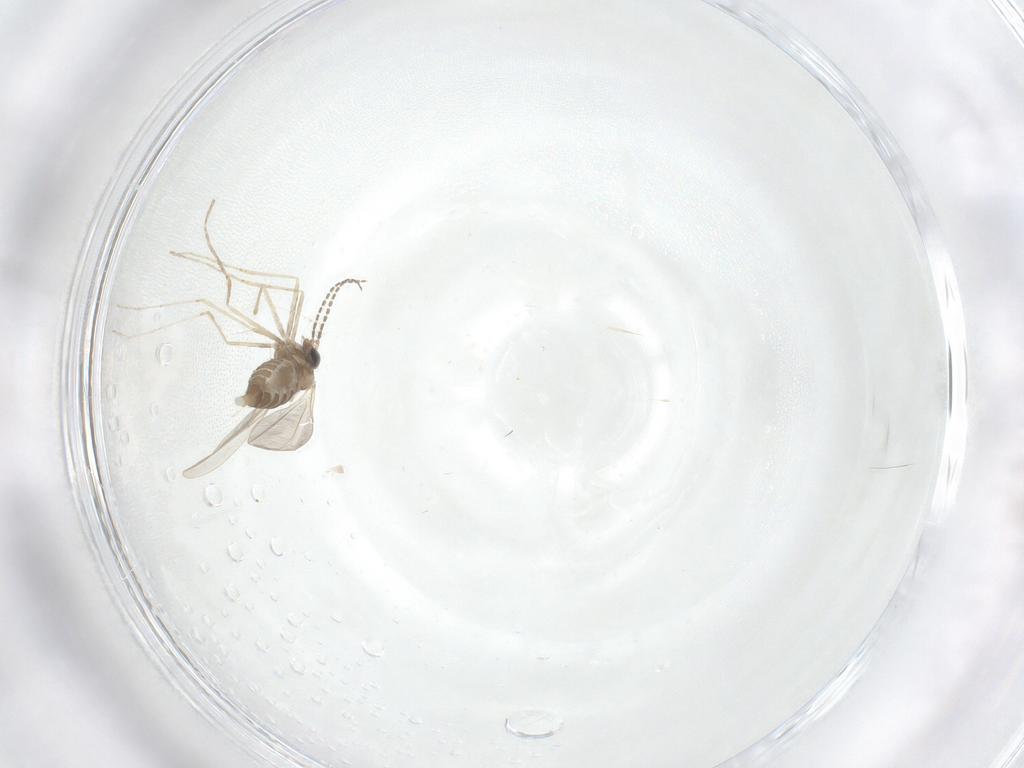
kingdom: Animalia
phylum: Arthropoda
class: Insecta
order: Diptera
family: Cecidomyiidae
